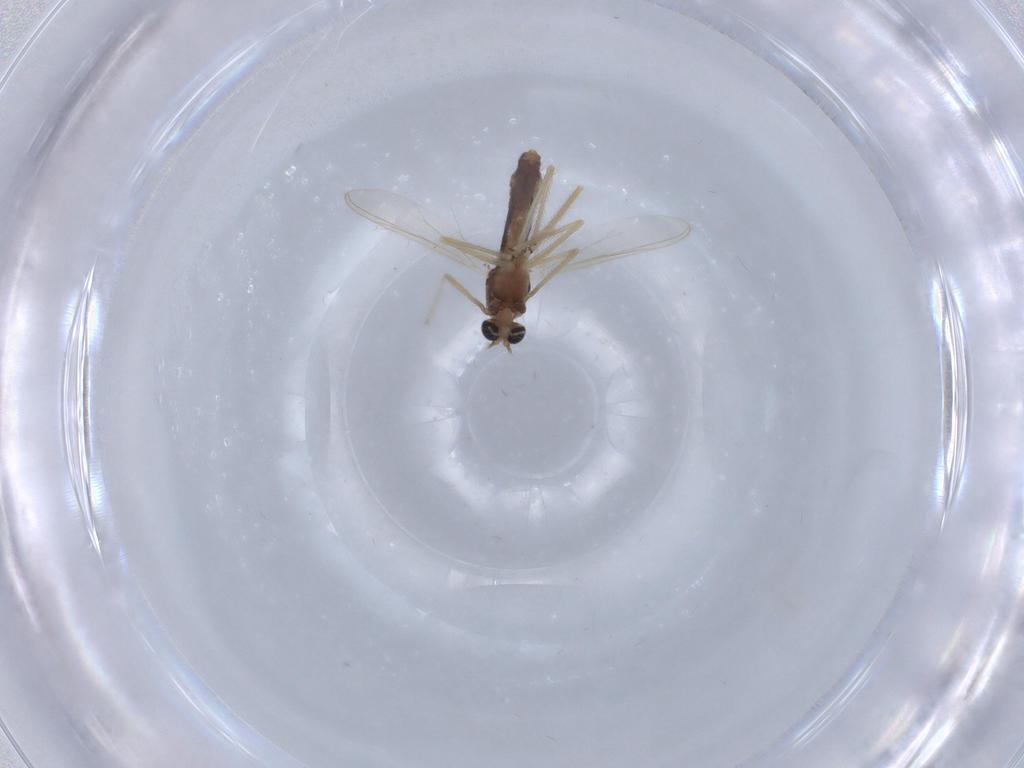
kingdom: Animalia
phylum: Arthropoda
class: Insecta
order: Diptera
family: Chironomidae
